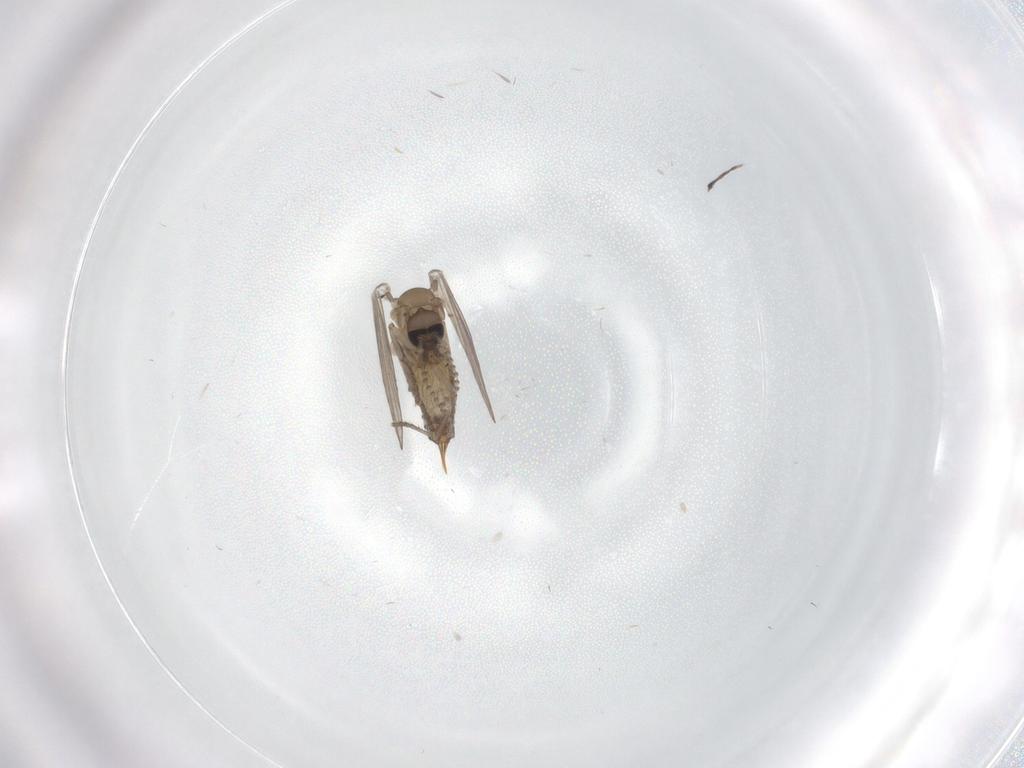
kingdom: Animalia
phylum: Arthropoda
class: Insecta
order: Diptera
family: Psychodidae
